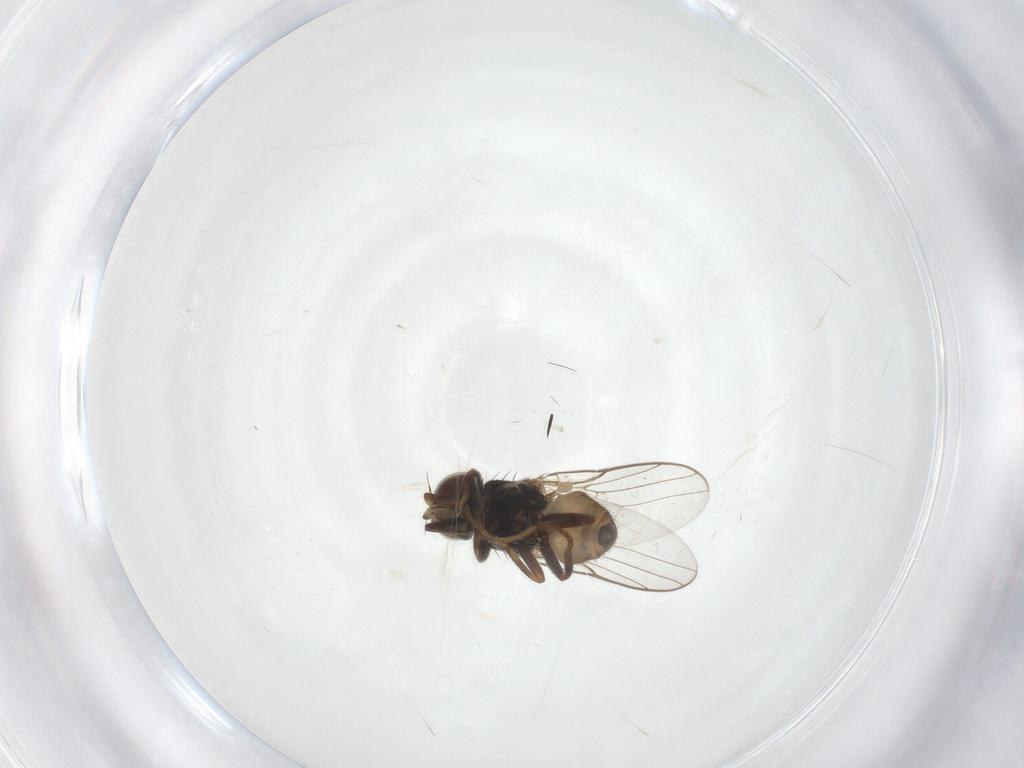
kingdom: Animalia
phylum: Arthropoda
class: Insecta
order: Diptera
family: Chloropidae
